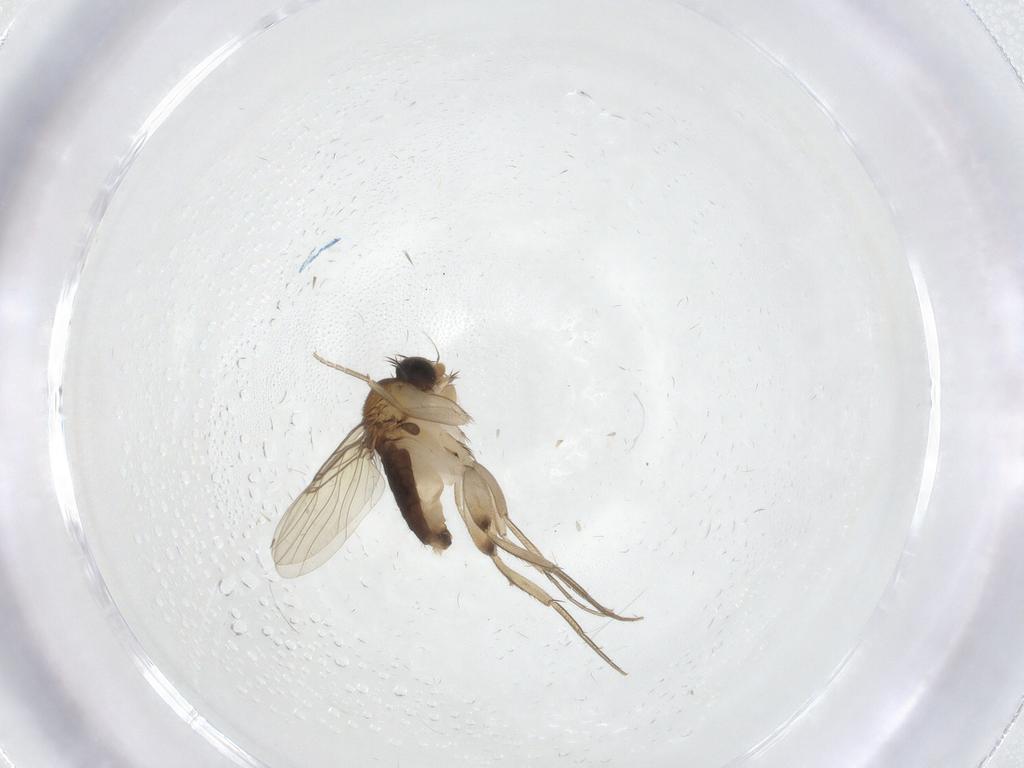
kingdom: Animalia
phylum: Arthropoda
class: Insecta
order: Diptera
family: Phoridae
